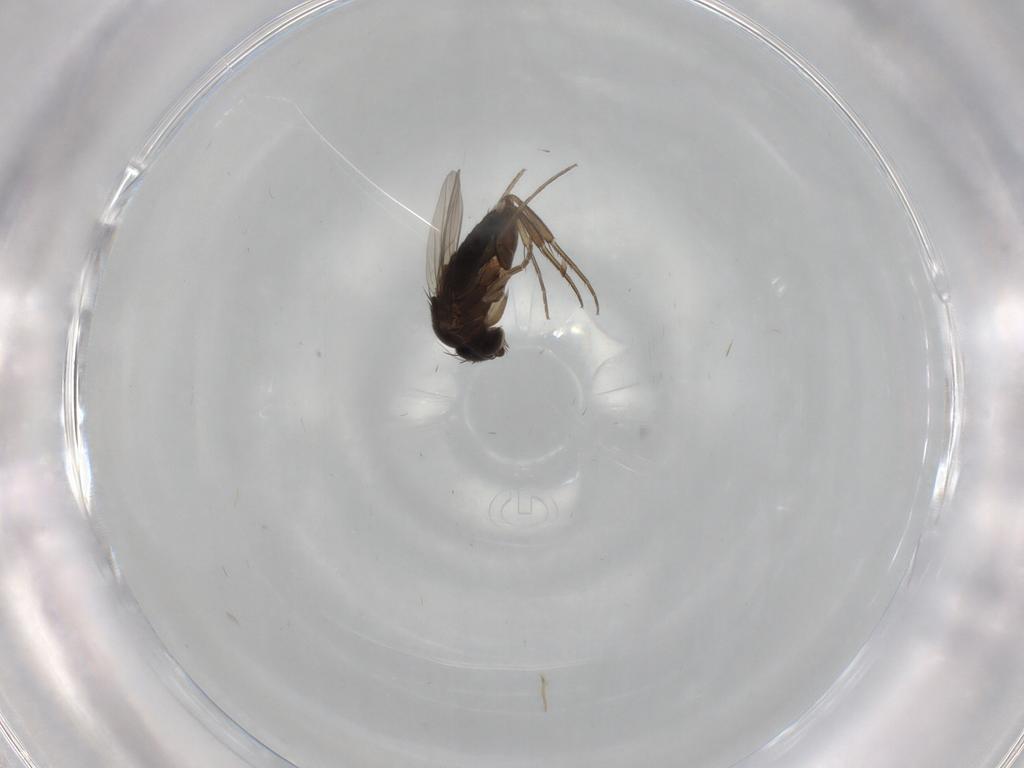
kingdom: Animalia
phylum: Arthropoda
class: Insecta
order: Diptera
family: Phoridae
